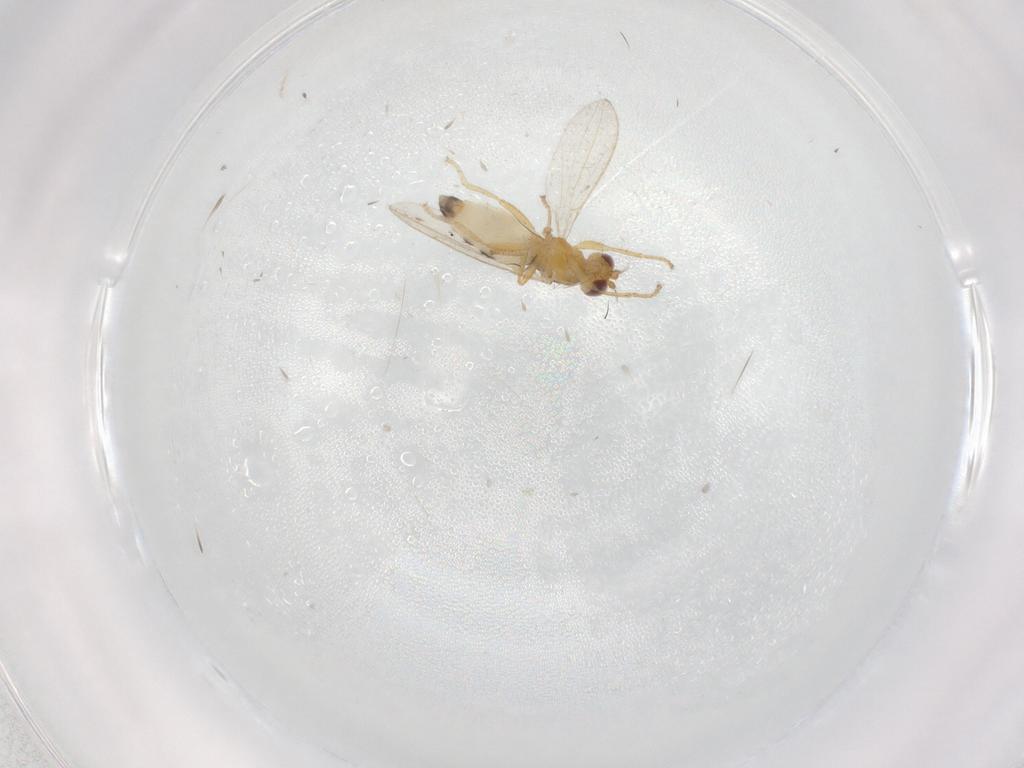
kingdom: Animalia
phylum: Arthropoda
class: Insecta
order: Diptera
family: Periscelididae
